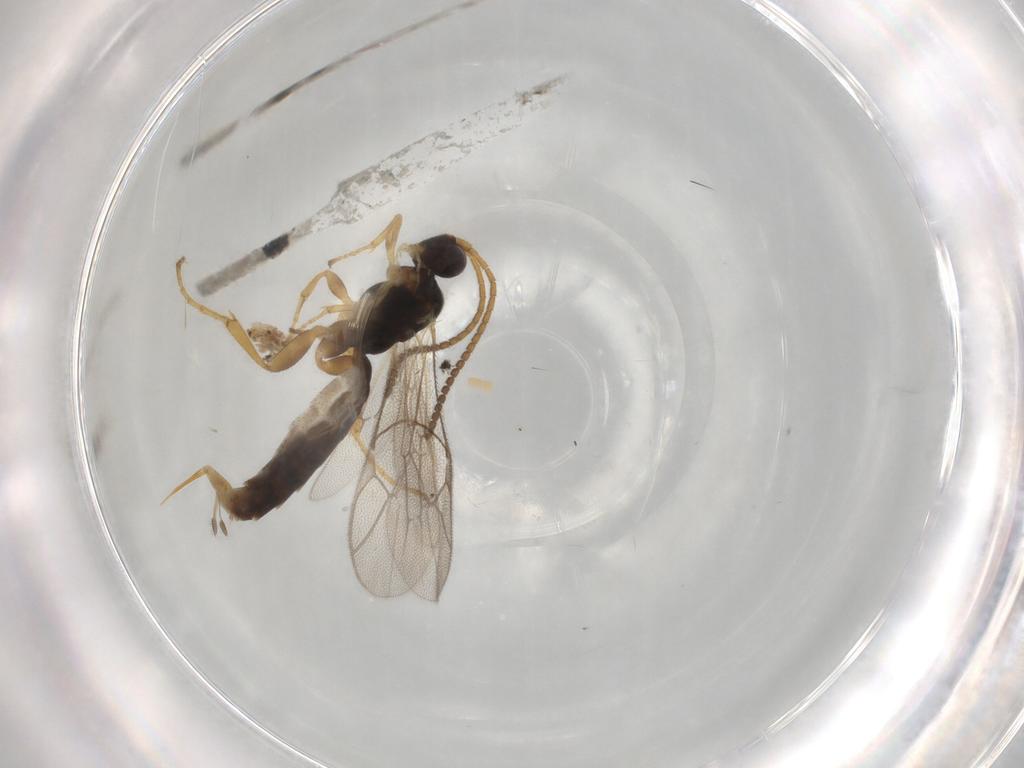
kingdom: Animalia
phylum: Arthropoda
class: Insecta
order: Hymenoptera
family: Ichneumonidae
